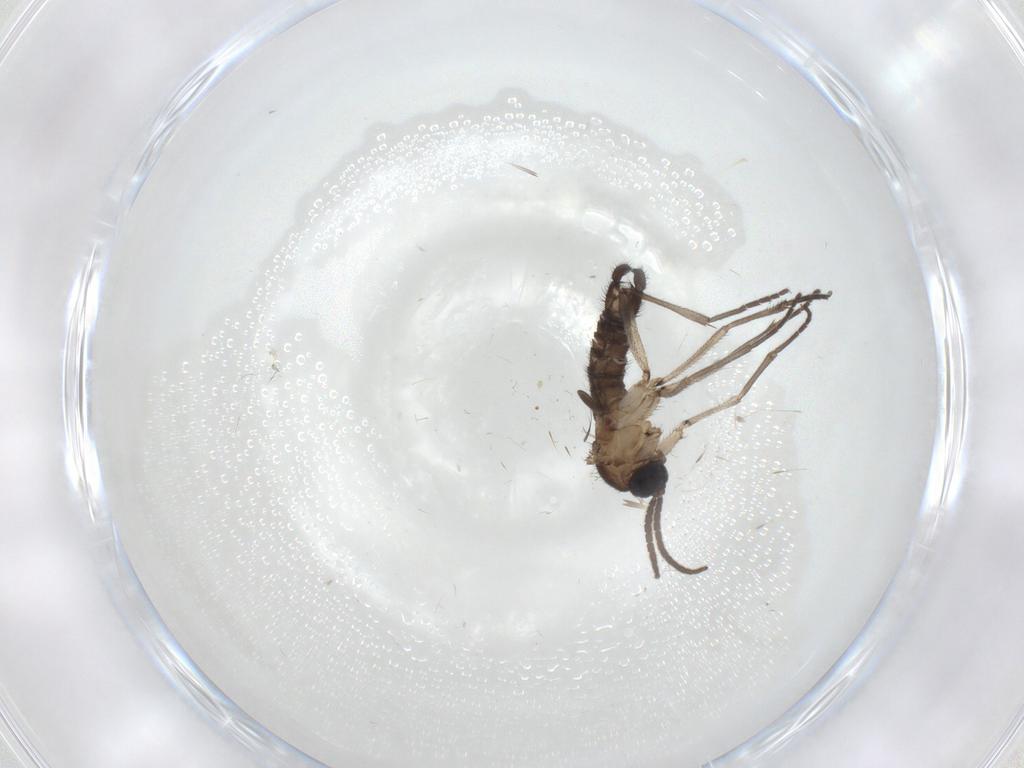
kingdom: Animalia
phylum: Arthropoda
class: Insecta
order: Diptera
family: Sciaridae
